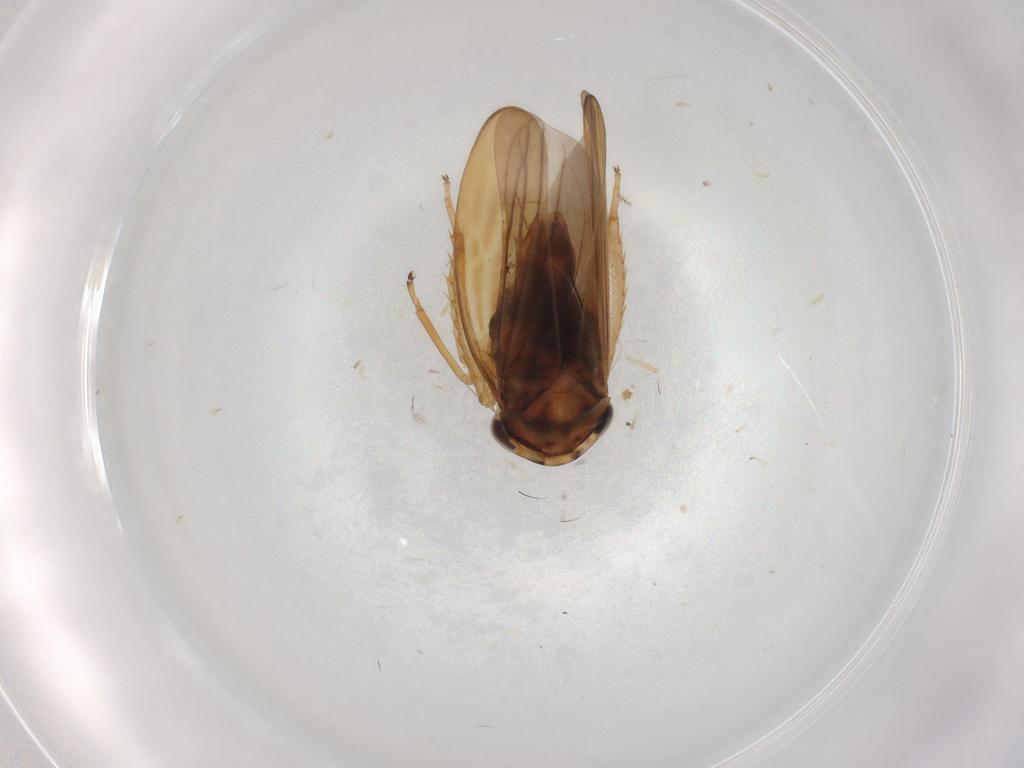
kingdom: Animalia
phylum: Arthropoda
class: Insecta
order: Hemiptera
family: Cicadellidae
